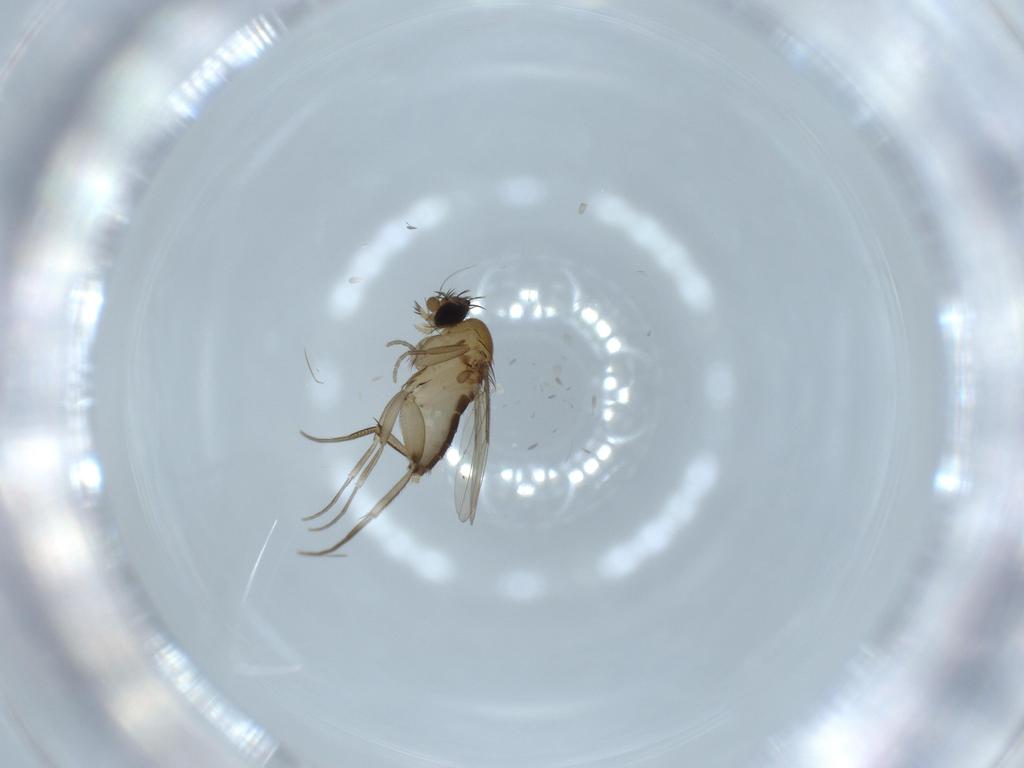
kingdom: Animalia
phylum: Arthropoda
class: Insecta
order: Diptera
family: Phoridae
